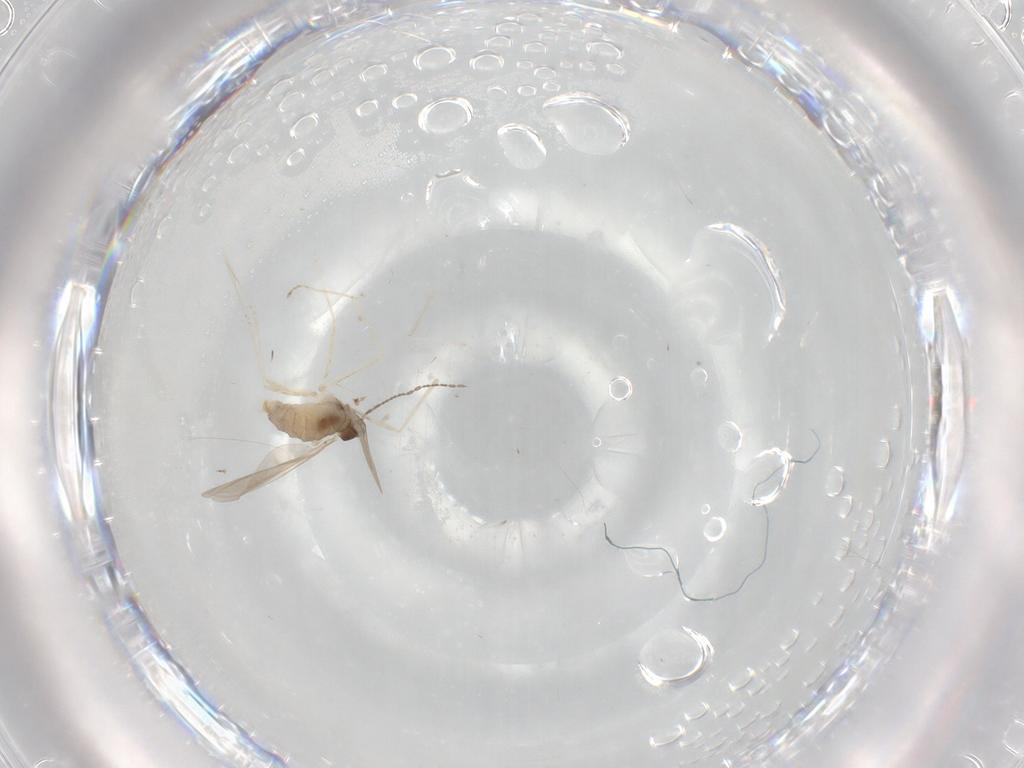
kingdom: Animalia
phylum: Arthropoda
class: Insecta
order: Diptera
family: Cecidomyiidae
